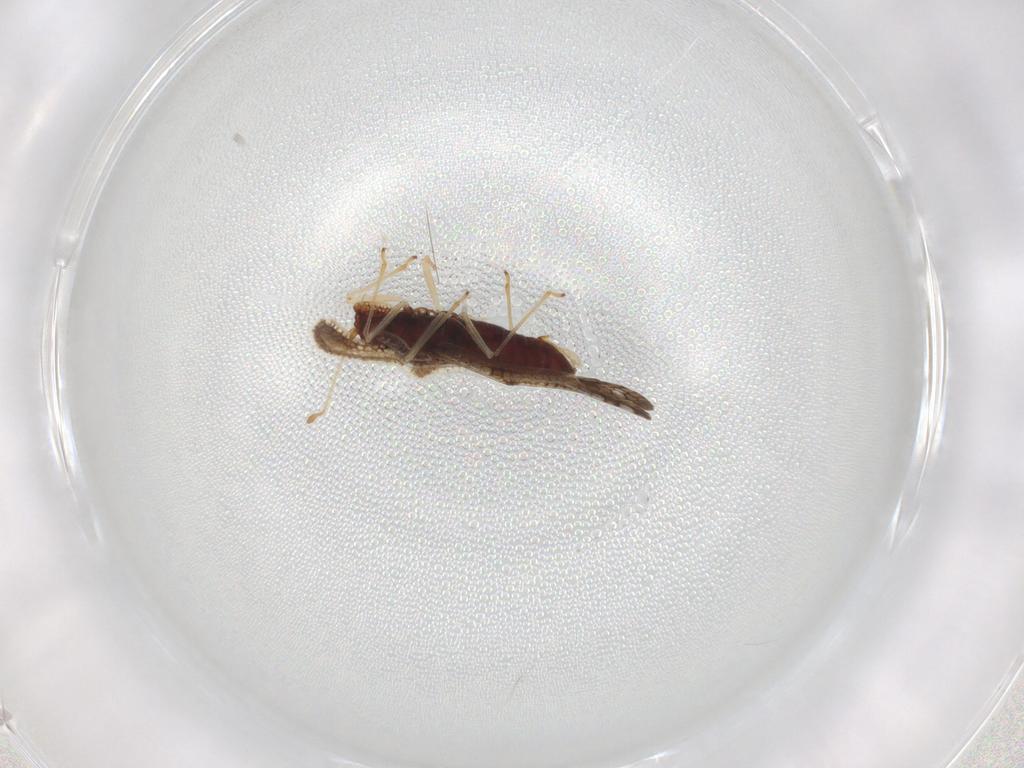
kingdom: Animalia
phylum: Arthropoda
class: Insecta
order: Hemiptera
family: Tingidae
